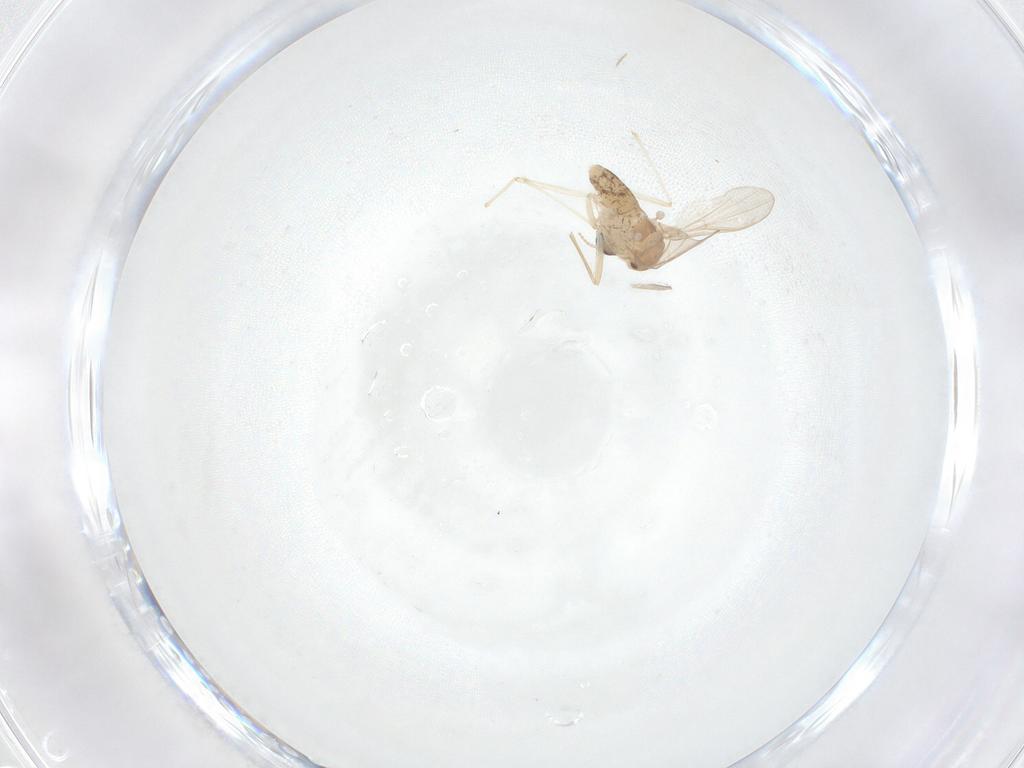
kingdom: Animalia
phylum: Arthropoda
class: Insecta
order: Diptera
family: Chironomidae
